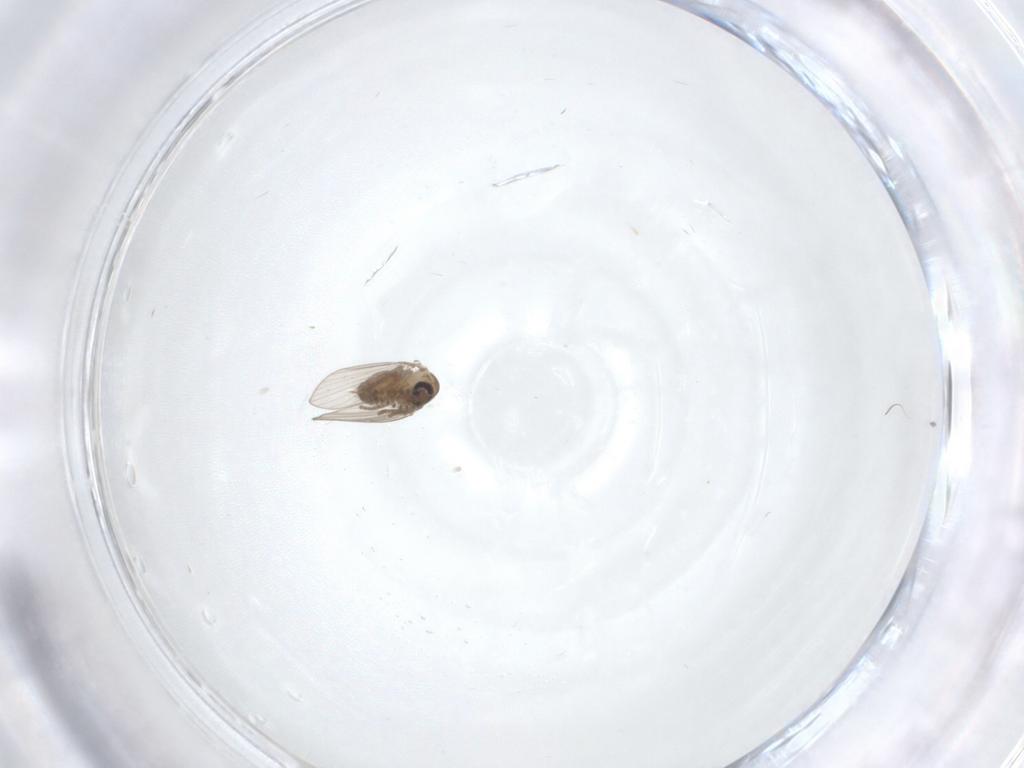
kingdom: Animalia
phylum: Arthropoda
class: Insecta
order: Diptera
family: Psychodidae
